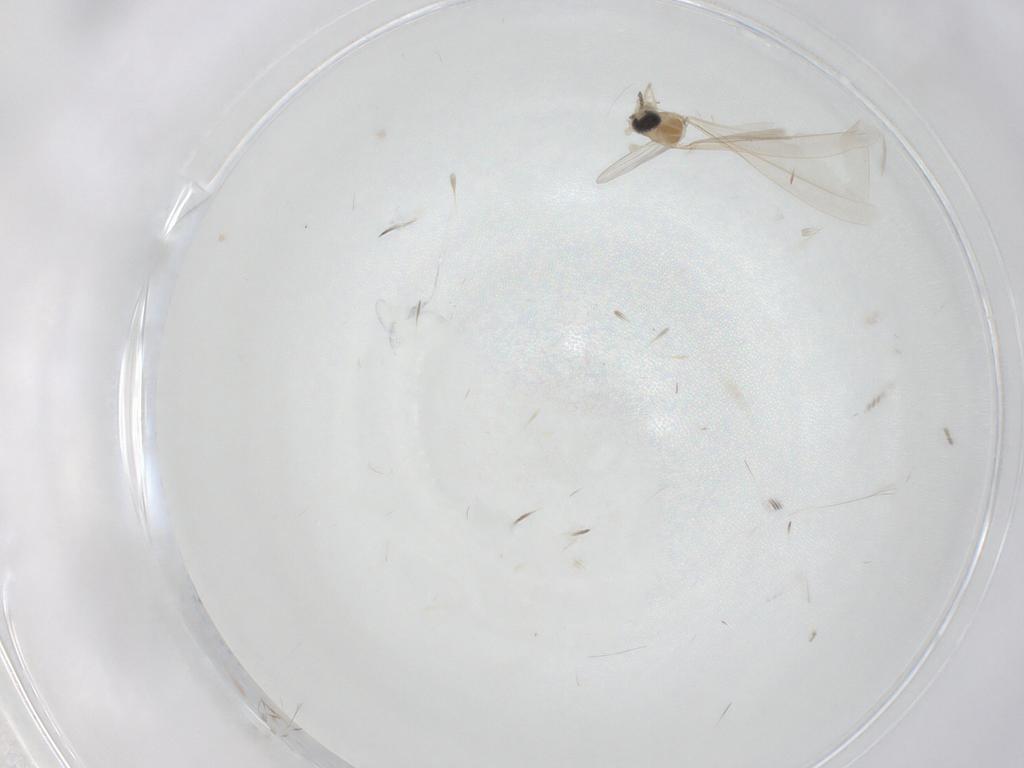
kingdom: Animalia
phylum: Arthropoda
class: Insecta
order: Diptera
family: Cecidomyiidae
